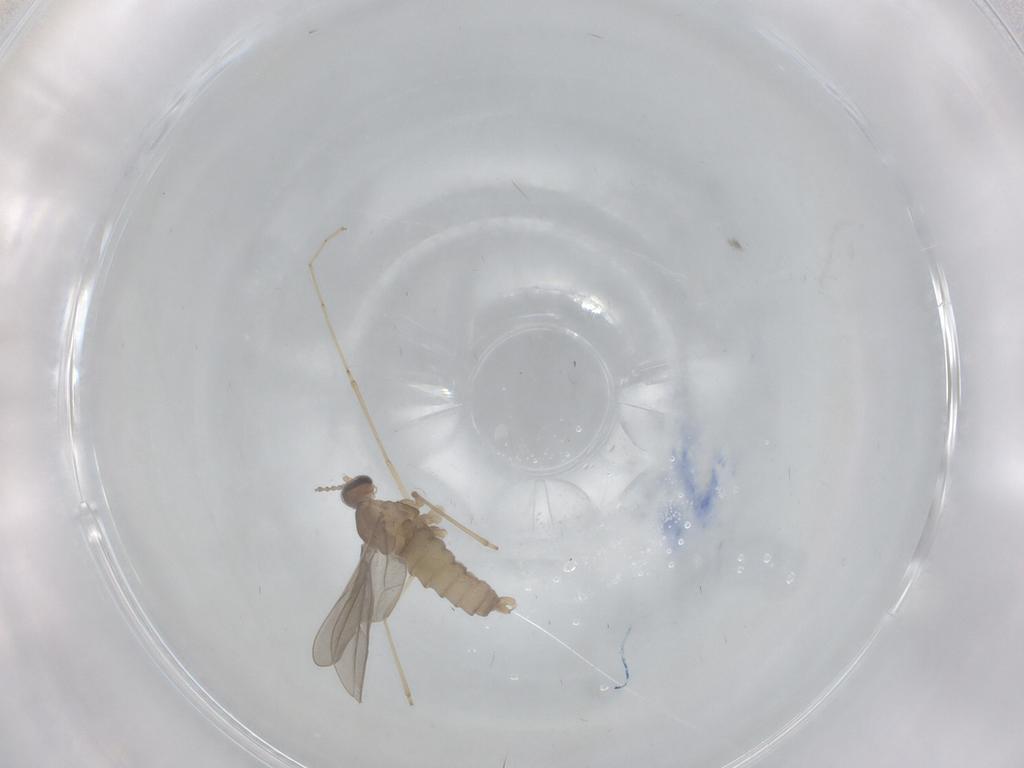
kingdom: Animalia
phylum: Arthropoda
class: Insecta
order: Diptera
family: Cecidomyiidae
